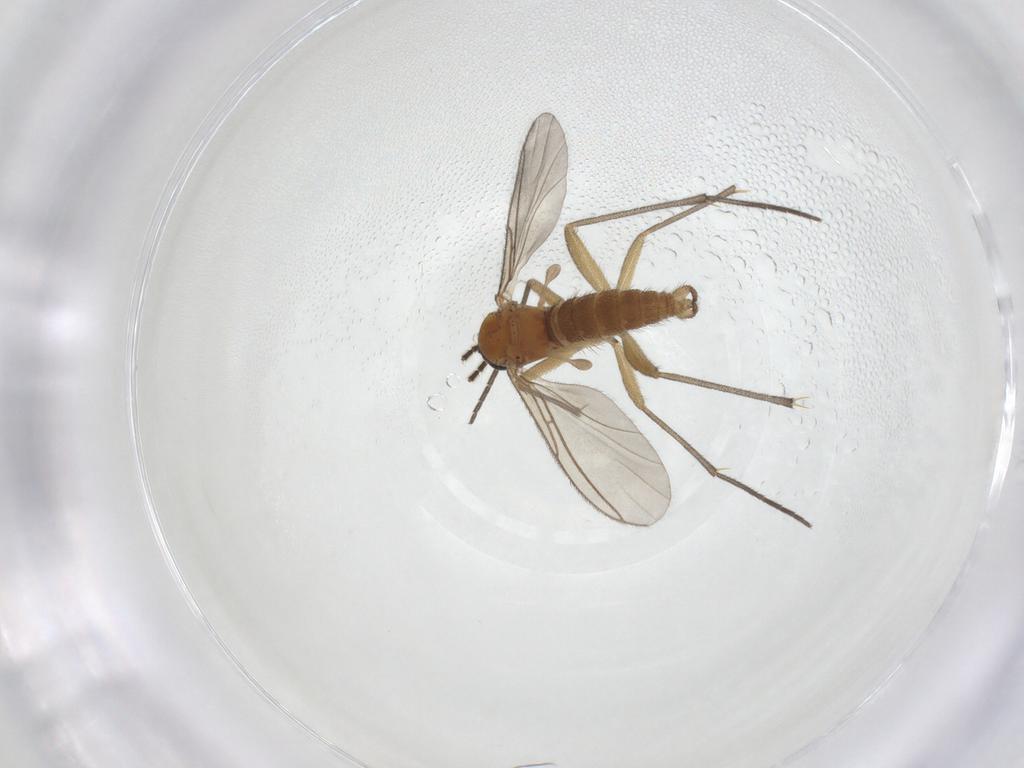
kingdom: Animalia
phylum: Arthropoda
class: Insecta
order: Diptera
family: Sciaridae
